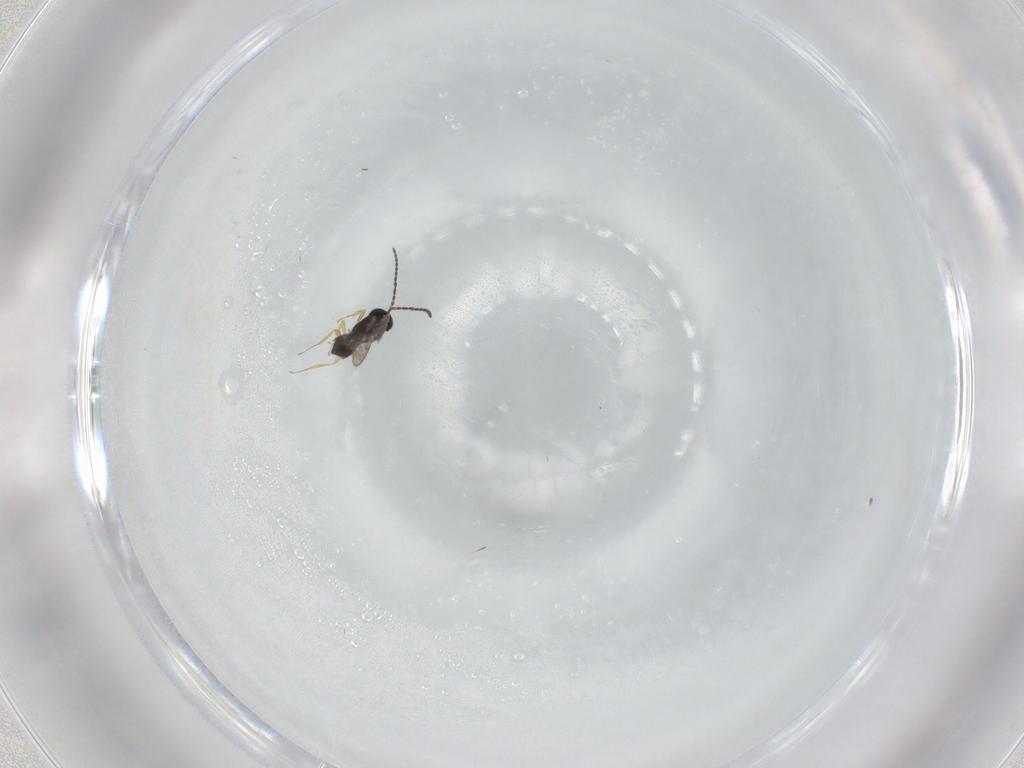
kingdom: Animalia
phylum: Arthropoda
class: Insecta
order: Hymenoptera
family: Scelionidae
